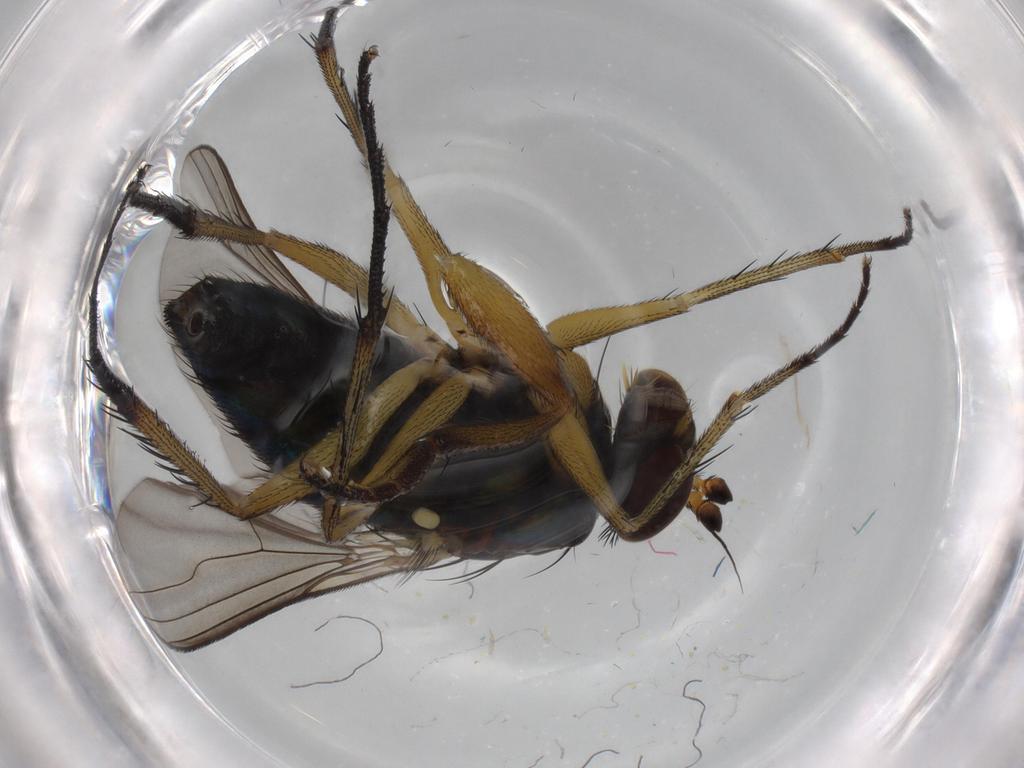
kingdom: Animalia
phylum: Arthropoda
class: Insecta
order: Diptera
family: Dolichopodidae
